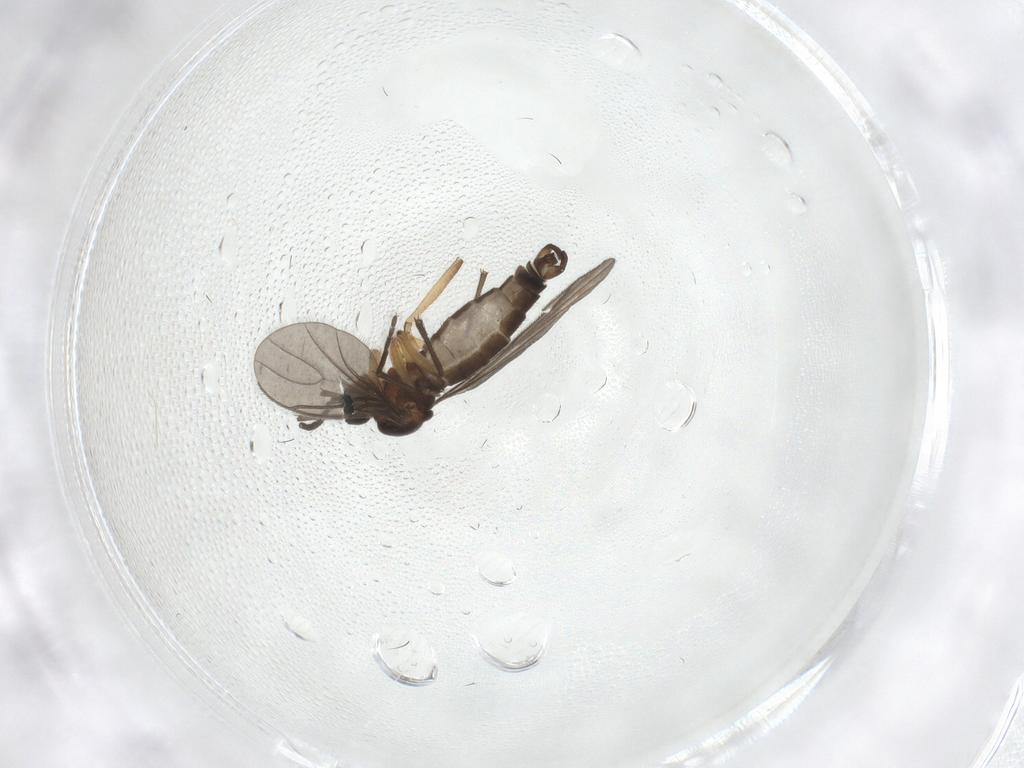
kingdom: Animalia
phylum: Arthropoda
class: Insecta
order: Diptera
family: Sciaridae
